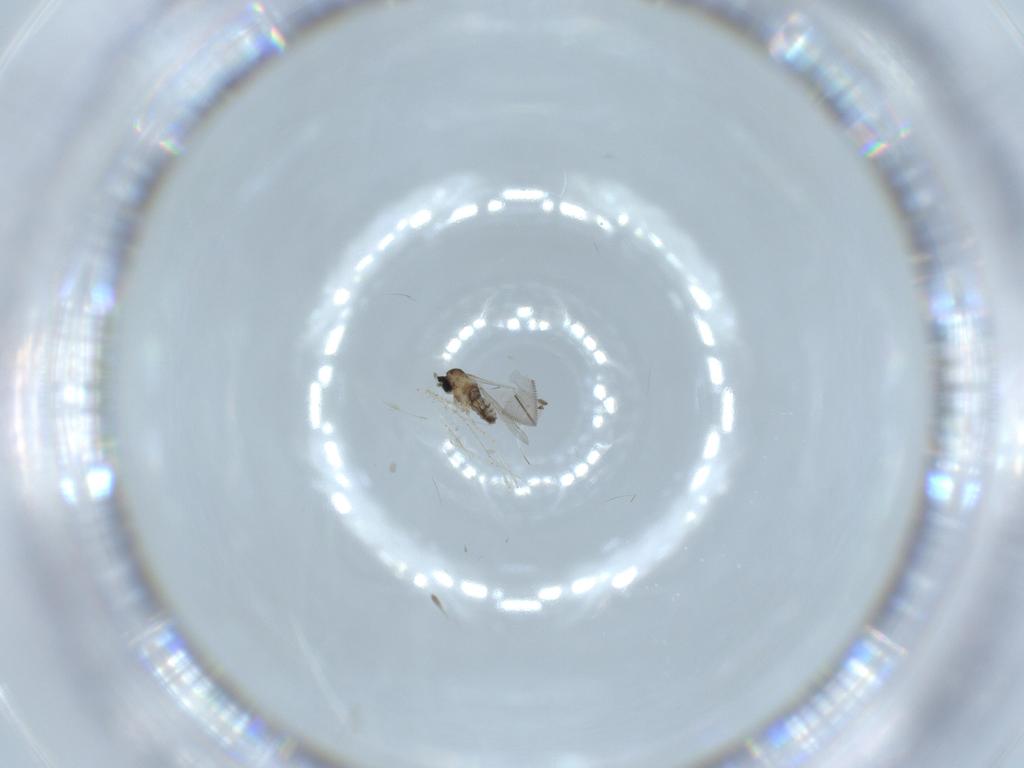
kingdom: Animalia
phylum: Arthropoda
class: Insecta
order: Diptera
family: Cecidomyiidae
